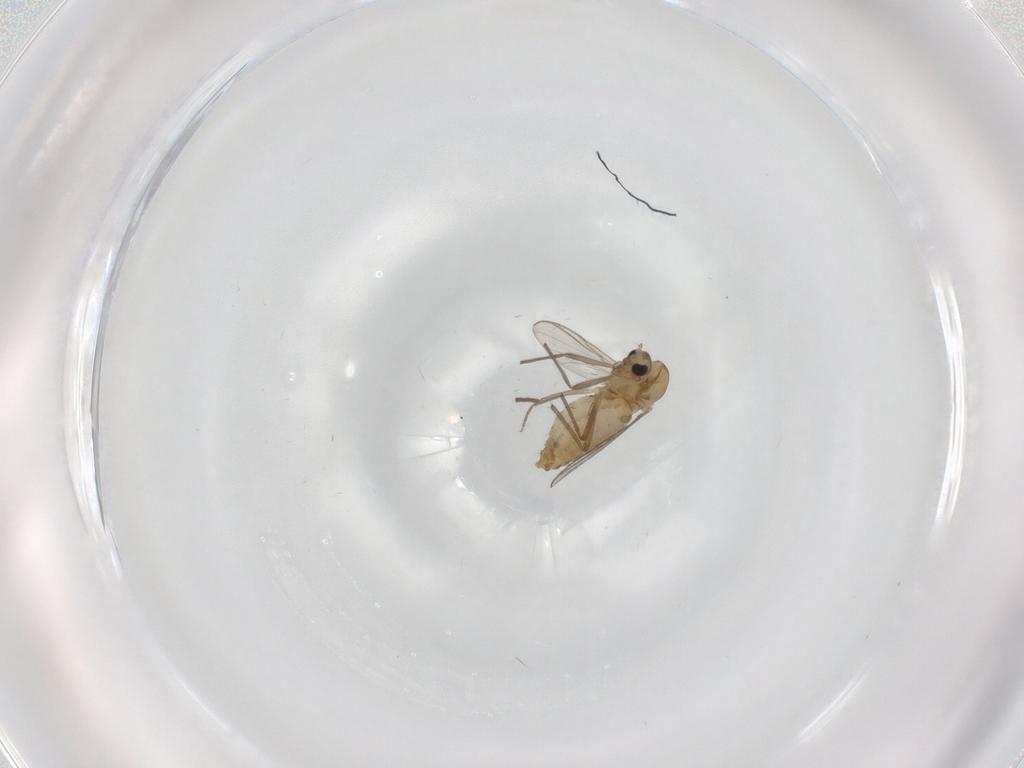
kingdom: Animalia
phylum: Arthropoda
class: Insecta
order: Diptera
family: Chironomidae
